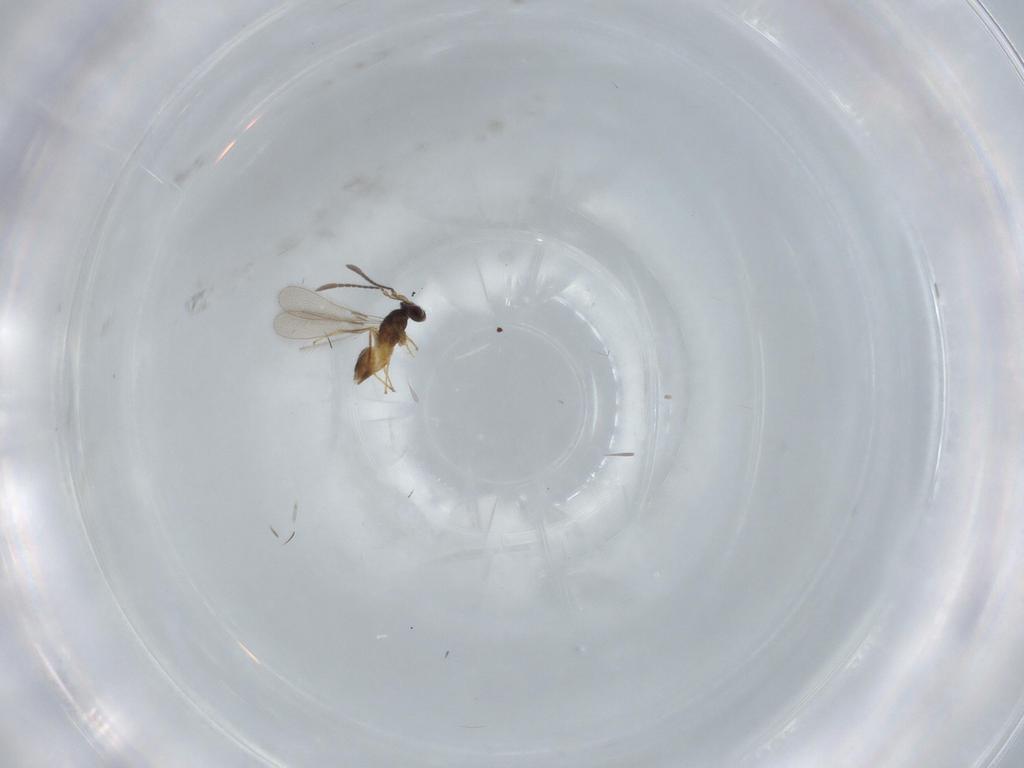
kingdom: Animalia
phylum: Arthropoda
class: Insecta
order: Hymenoptera
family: Mymaridae
